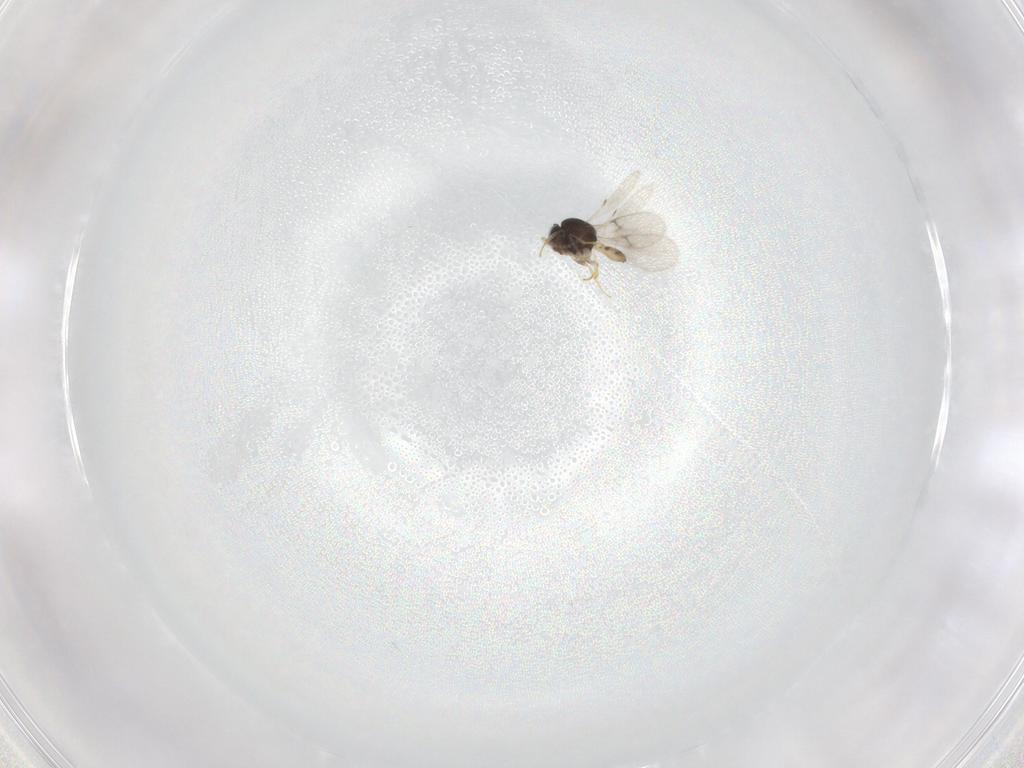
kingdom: Animalia
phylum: Arthropoda
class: Insecta
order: Hymenoptera
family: Scelionidae
